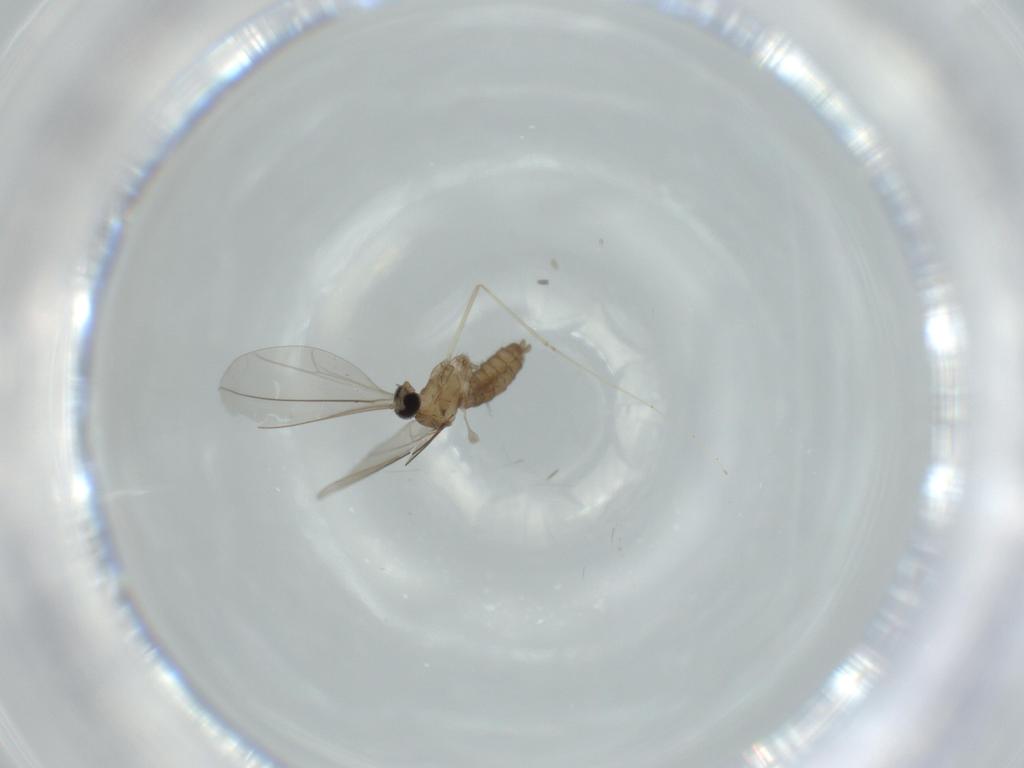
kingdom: Animalia
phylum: Arthropoda
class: Insecta
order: Diptera
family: Cecidomyiidae
